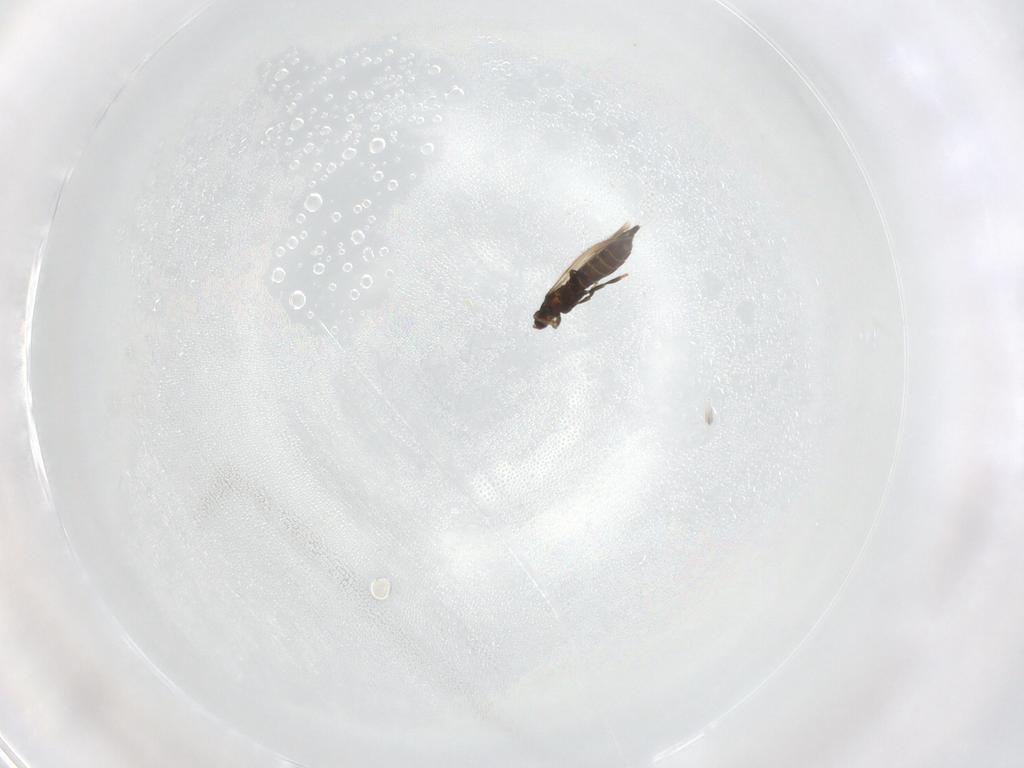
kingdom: Animalia
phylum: Arthropoda
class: Insecta
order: Thysanoptera
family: Thripidae
